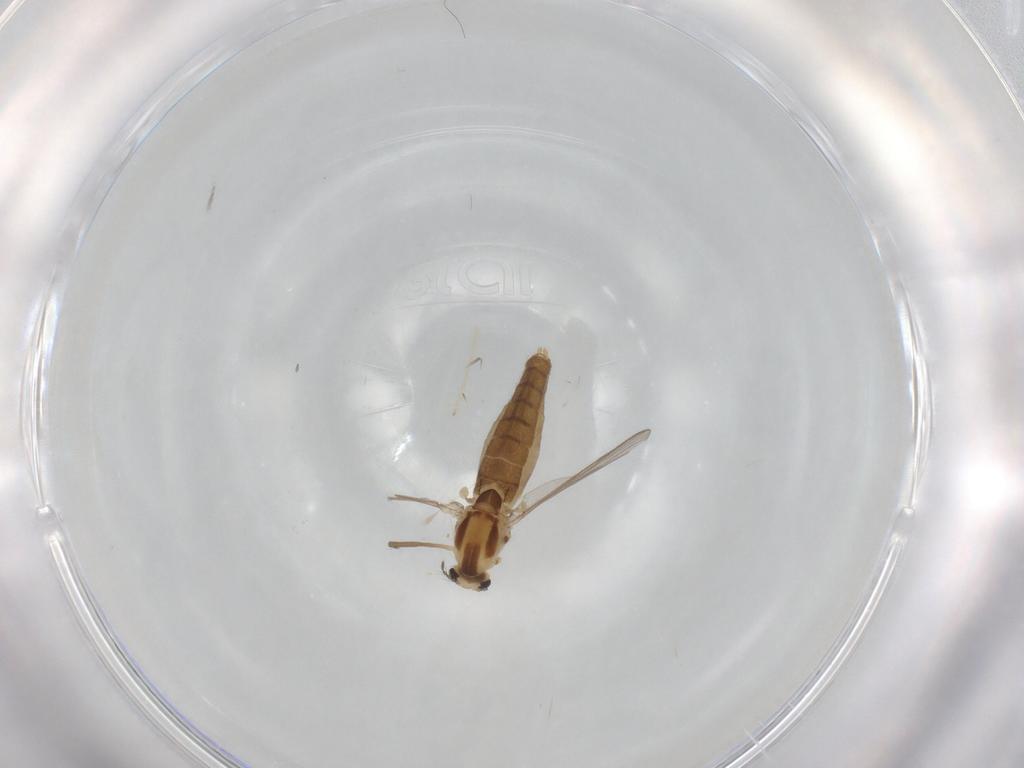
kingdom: Animalia
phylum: Arthropoda
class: Insecta
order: Diptera
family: Chironomidae
